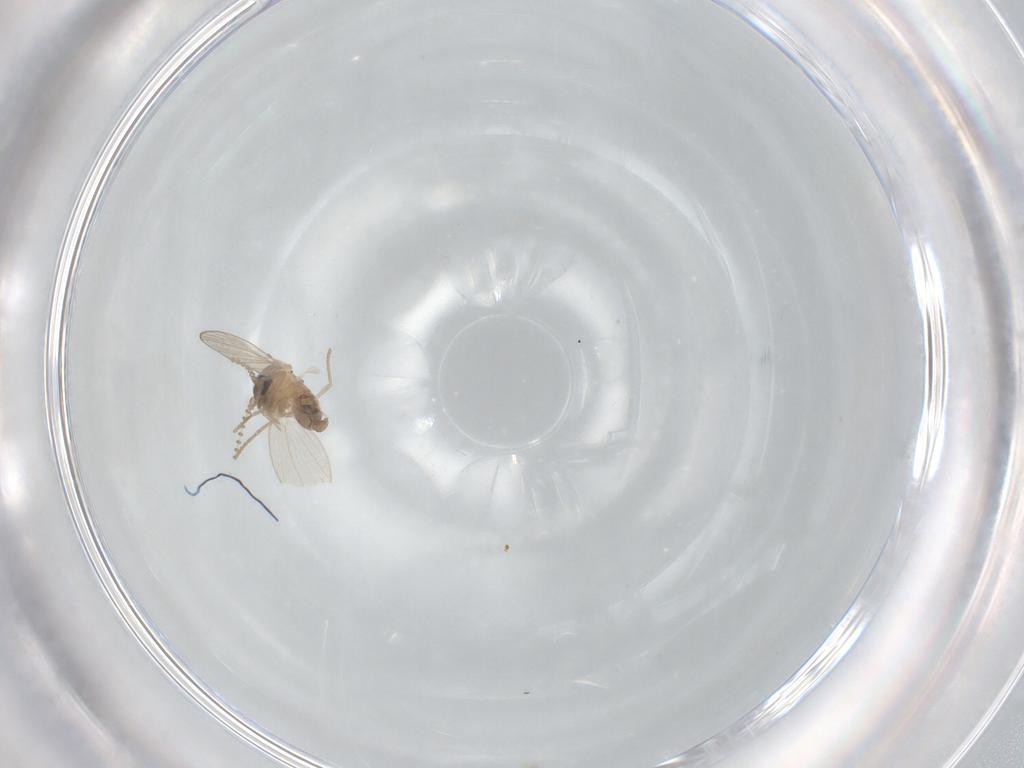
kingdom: Animalia
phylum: Arthropoda
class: Insecta
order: Diptera
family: Psychodidae
